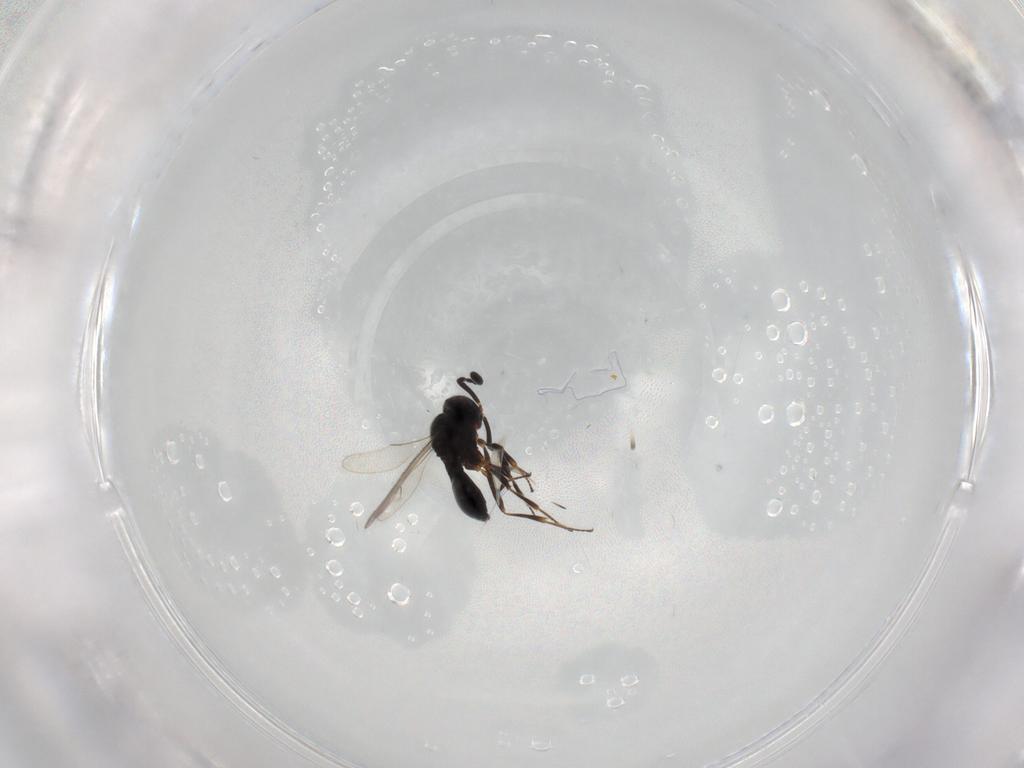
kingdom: Animalia
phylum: Arthropoda
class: Insecta
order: Hymenoptera
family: Scelionidae
